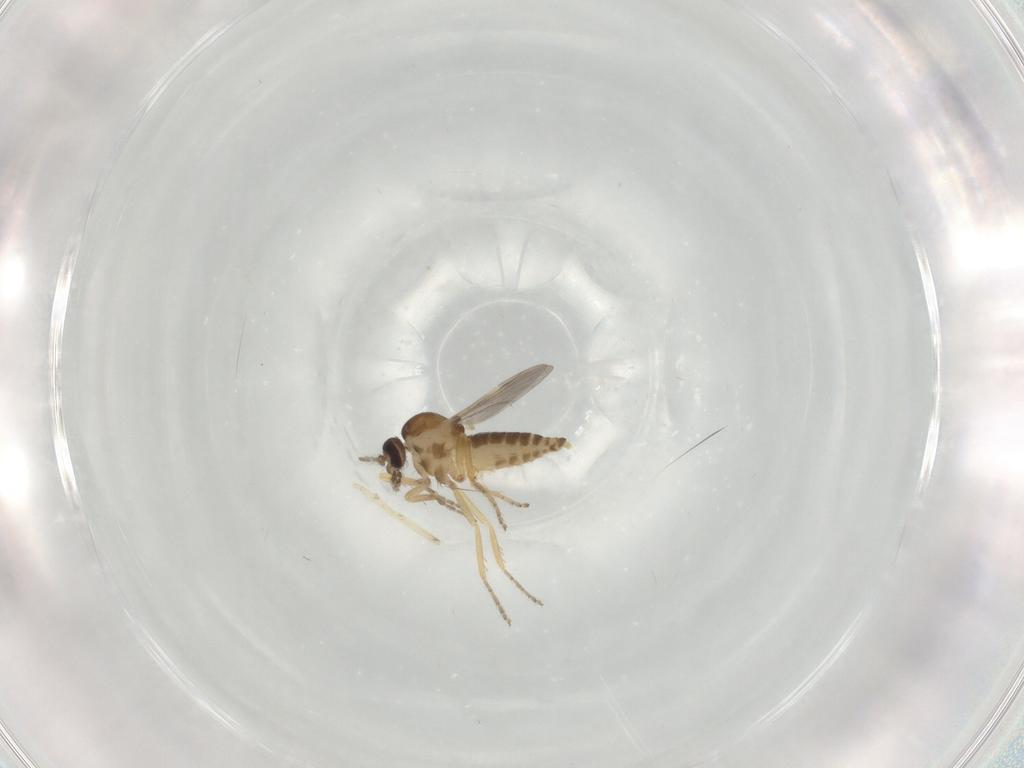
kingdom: Animalia
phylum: Arthropoda
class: Insecta
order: Diptera
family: Ceratopogonidae
